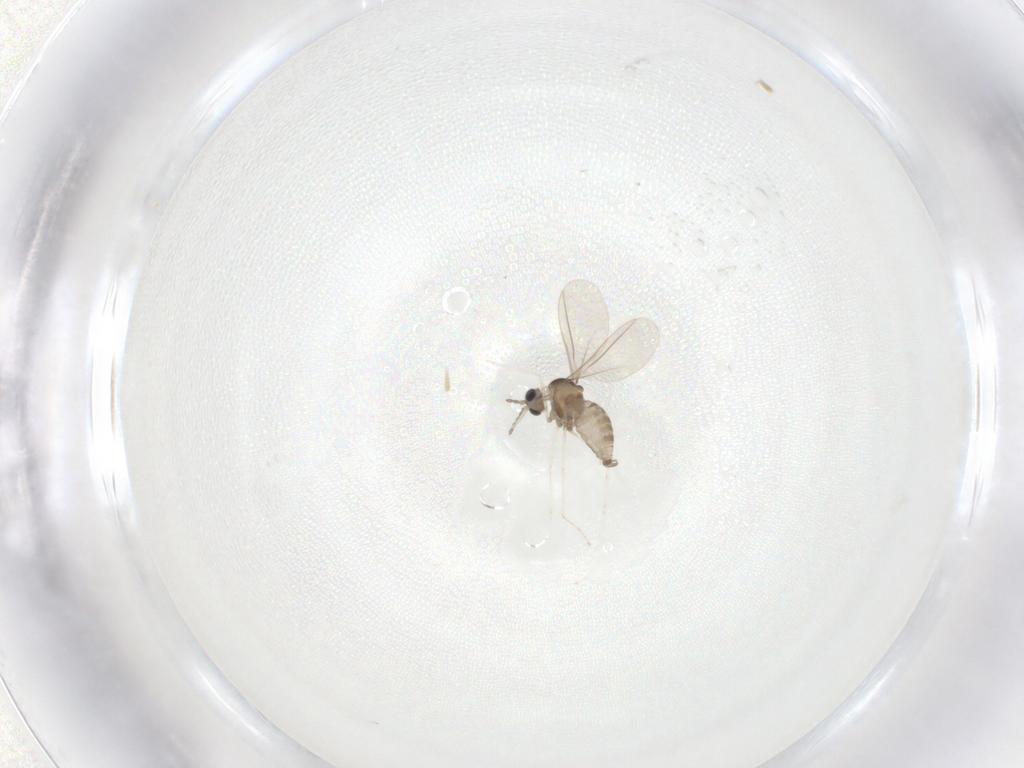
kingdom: Animalia
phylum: Arthropoda
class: Insecta
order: Diptera
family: Cecidomyiidae
